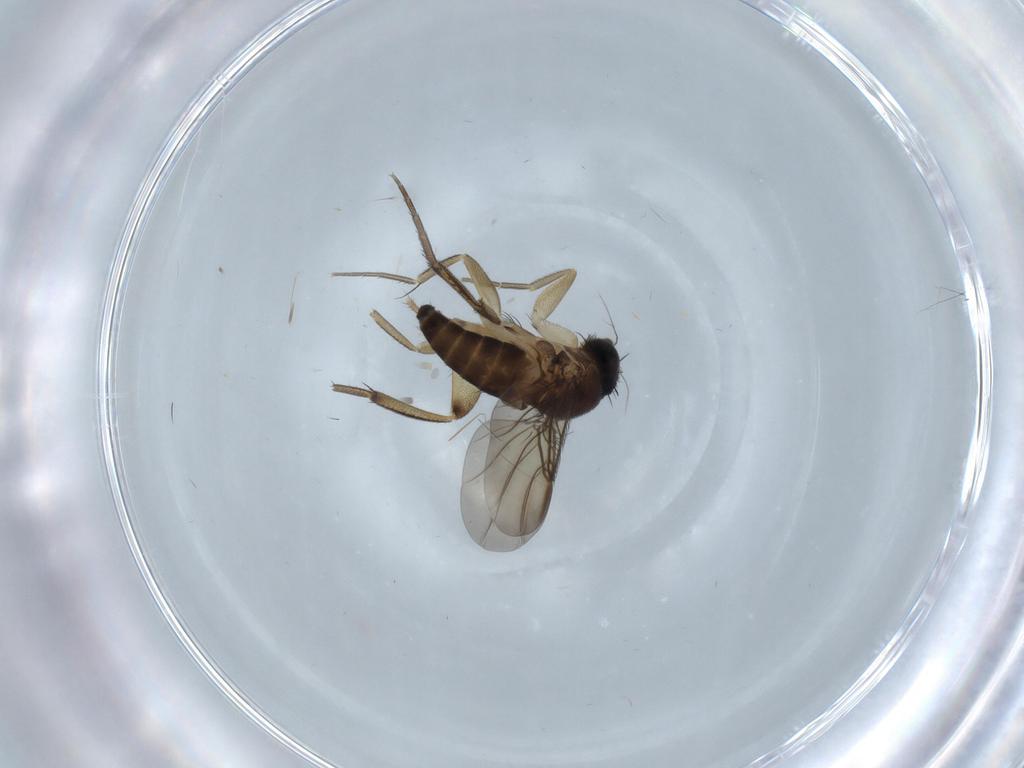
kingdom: Animalia
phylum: Arthropoda
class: Insecta
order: Diptera
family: Phoridae
